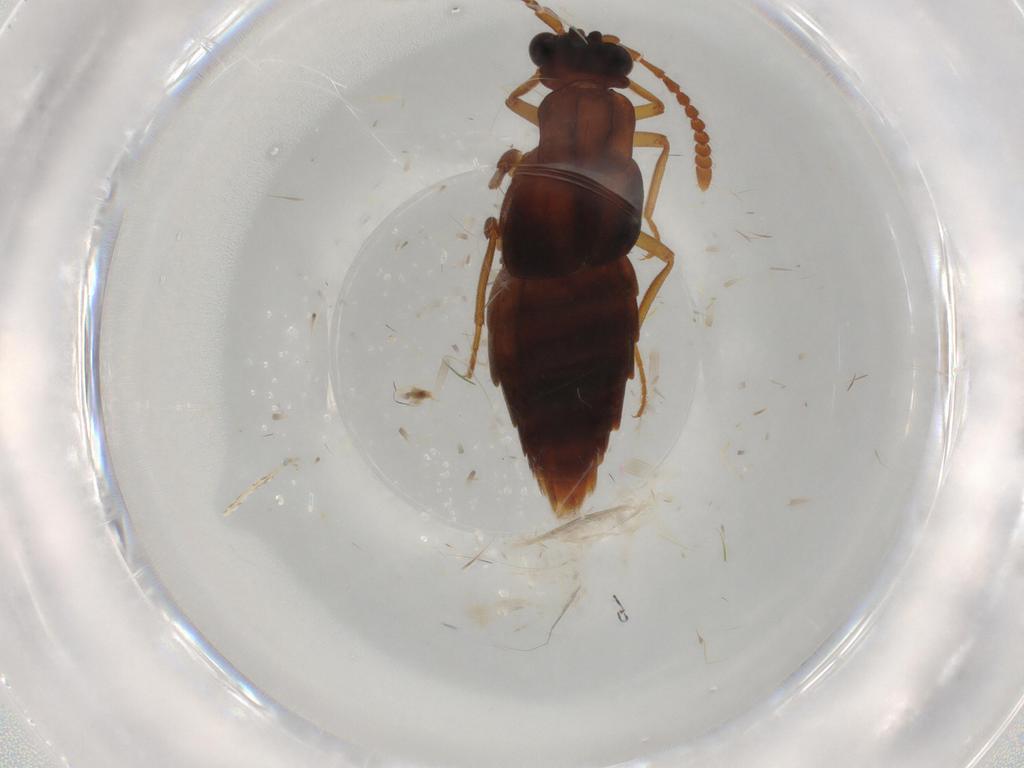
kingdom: Animalia
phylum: Arthropoda
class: Insecta
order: Coleoptera
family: Staphylinidae
